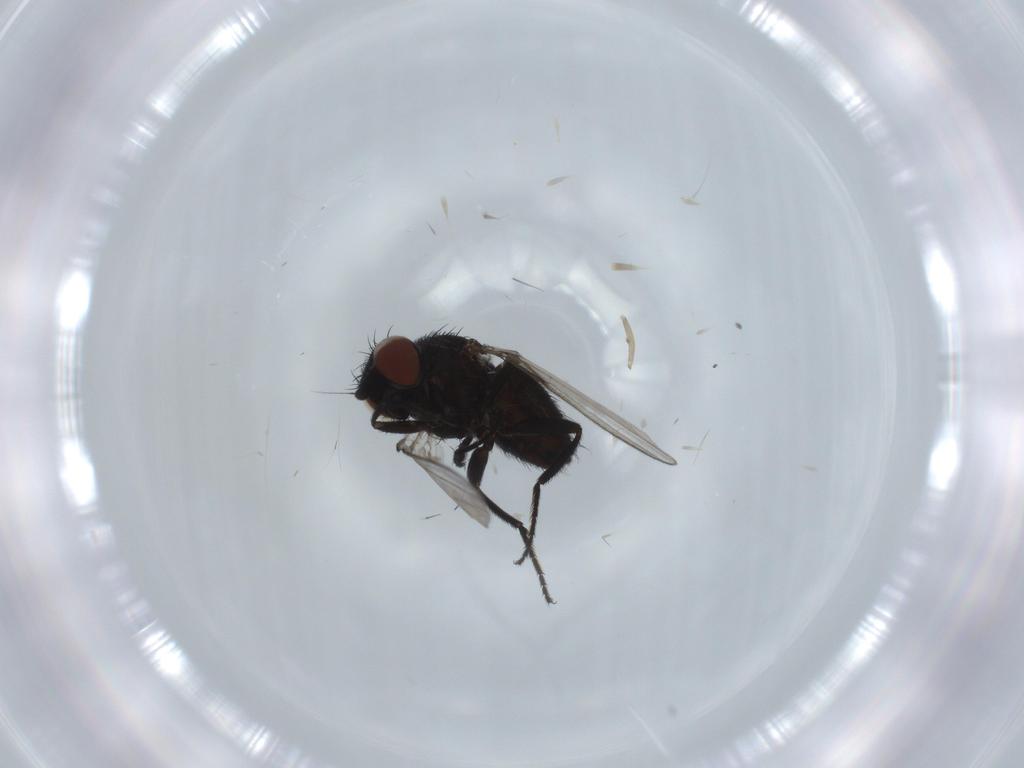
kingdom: Animalia
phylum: Arthropoda
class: Insecta
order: Diptera
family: Milichiidae
